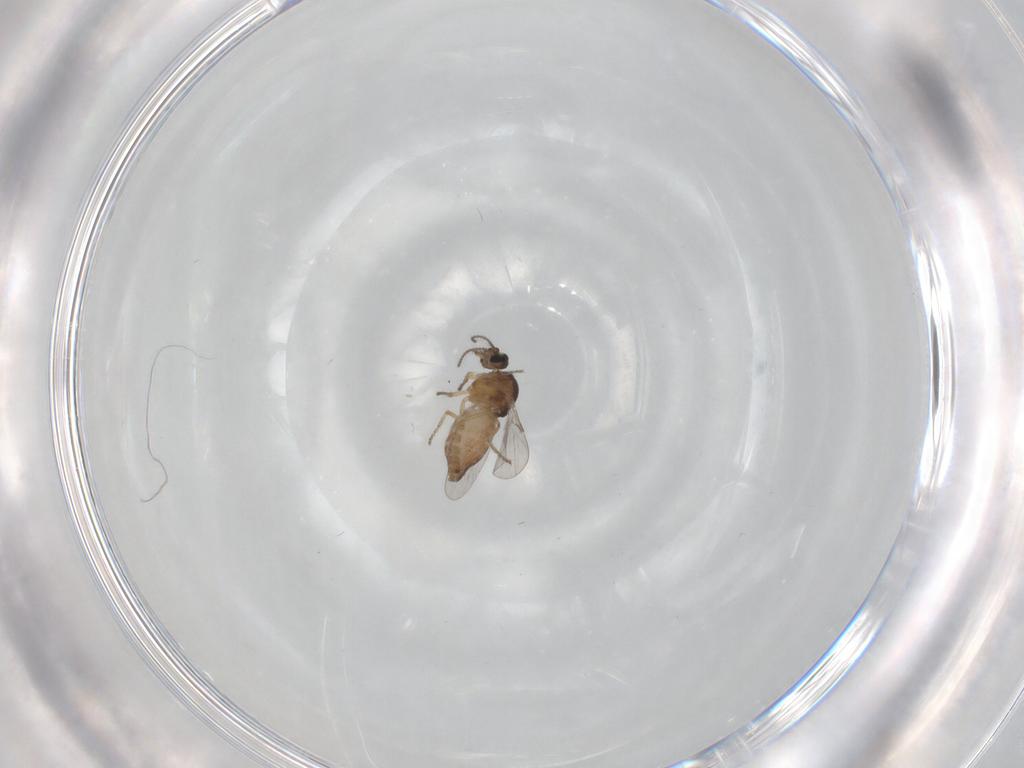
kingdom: Animalia
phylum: Arthropoda
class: Insecta
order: Diptera
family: Ceratopogonidae
